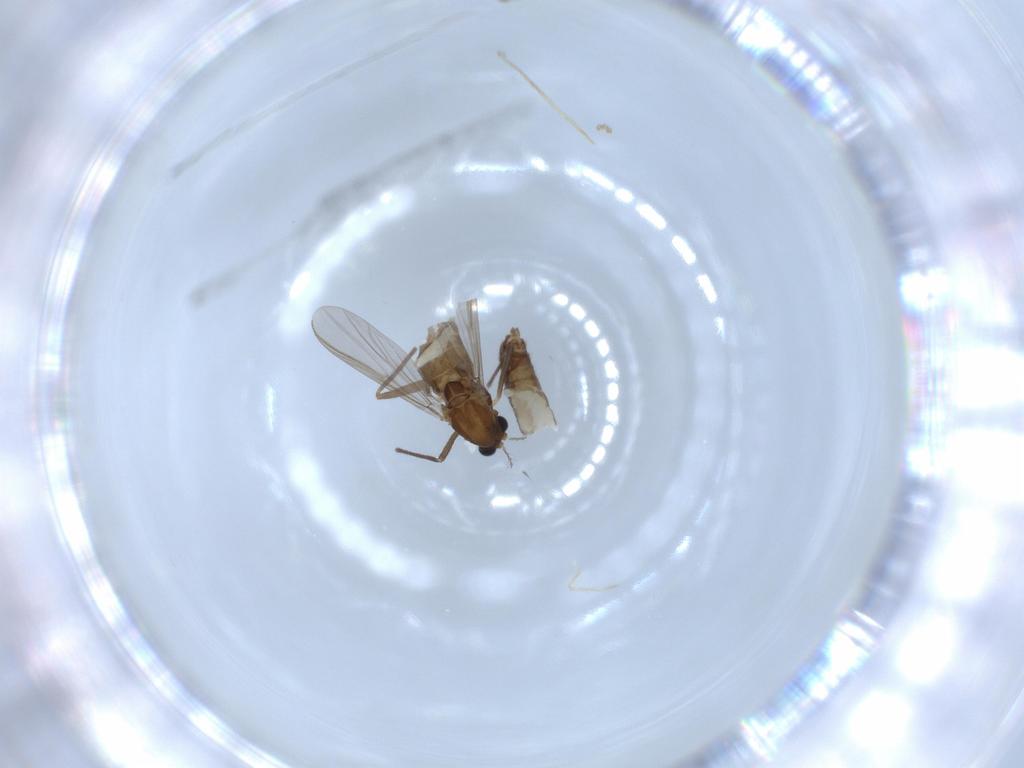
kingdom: Animalia
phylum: Arthropoda
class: Insecta
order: Diptera
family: Chironomidae
